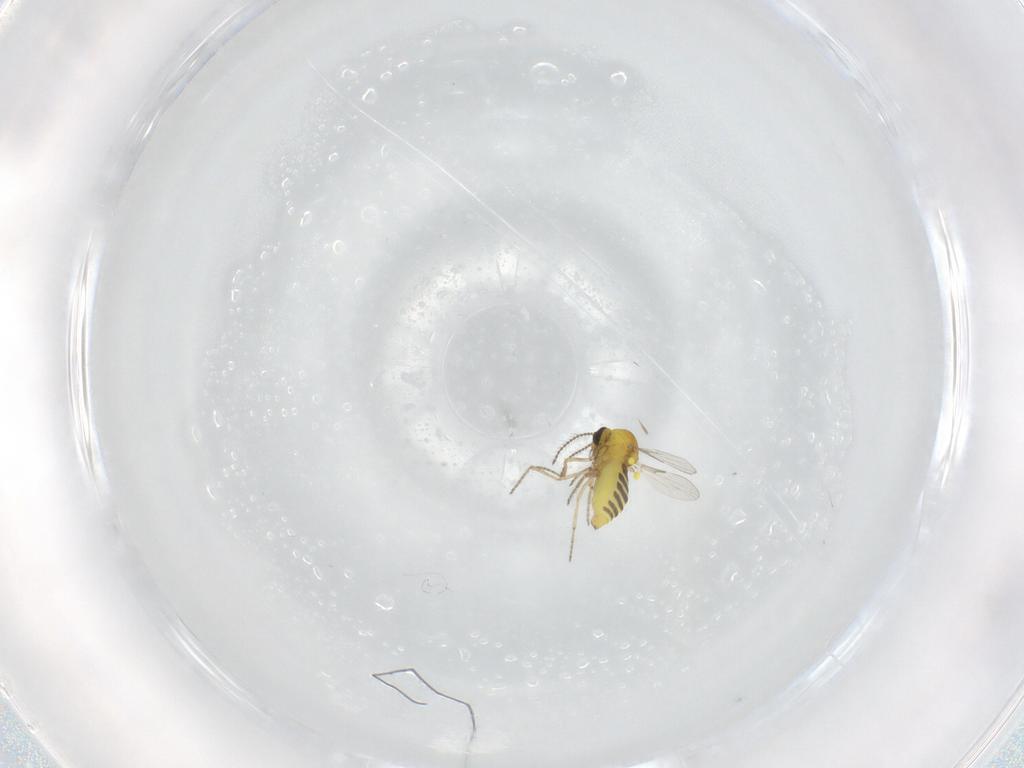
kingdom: Animalia
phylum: Arthropoda
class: Insecta
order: Diptera
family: Ceratopogonidae
